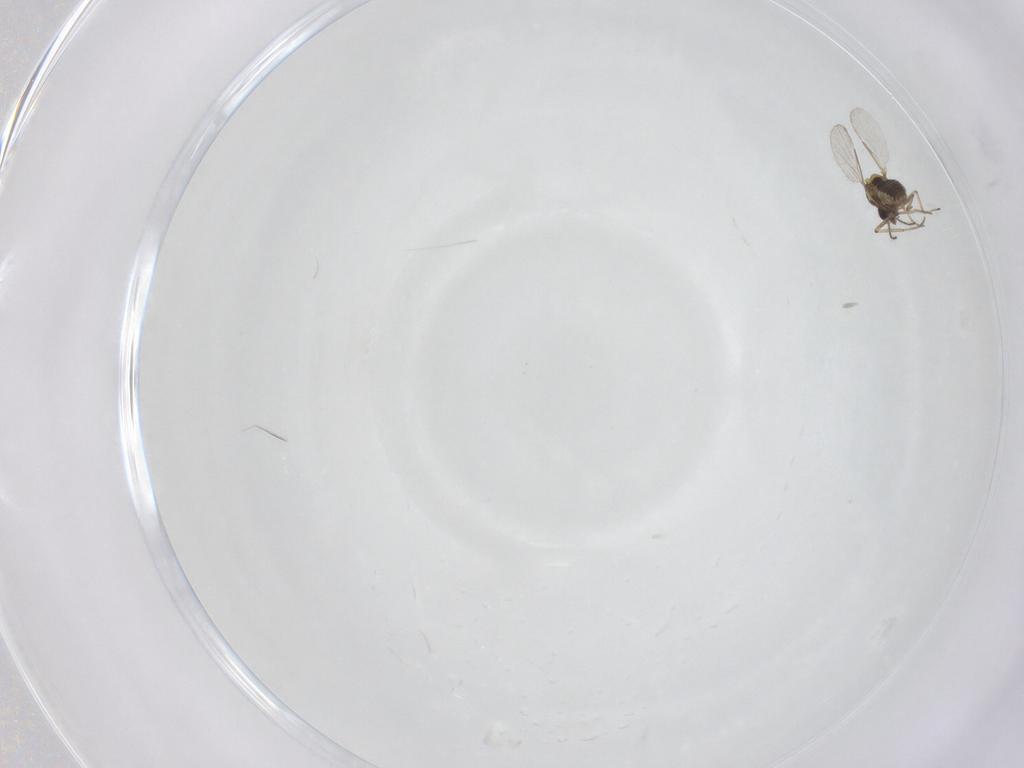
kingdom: Animalia
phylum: Arthropoda
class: Insecta
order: Diptera
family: Ceratopogonidae
